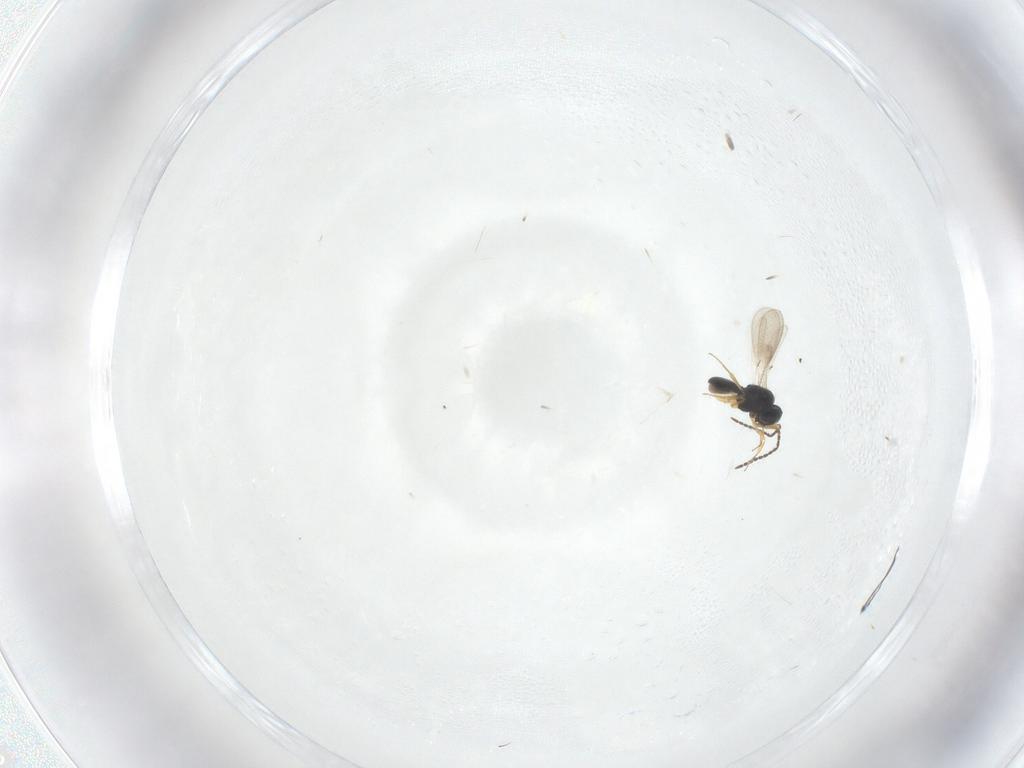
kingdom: Animalia
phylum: Arthropoda
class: Insecta
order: Hymenoptera
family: Scelionidae
